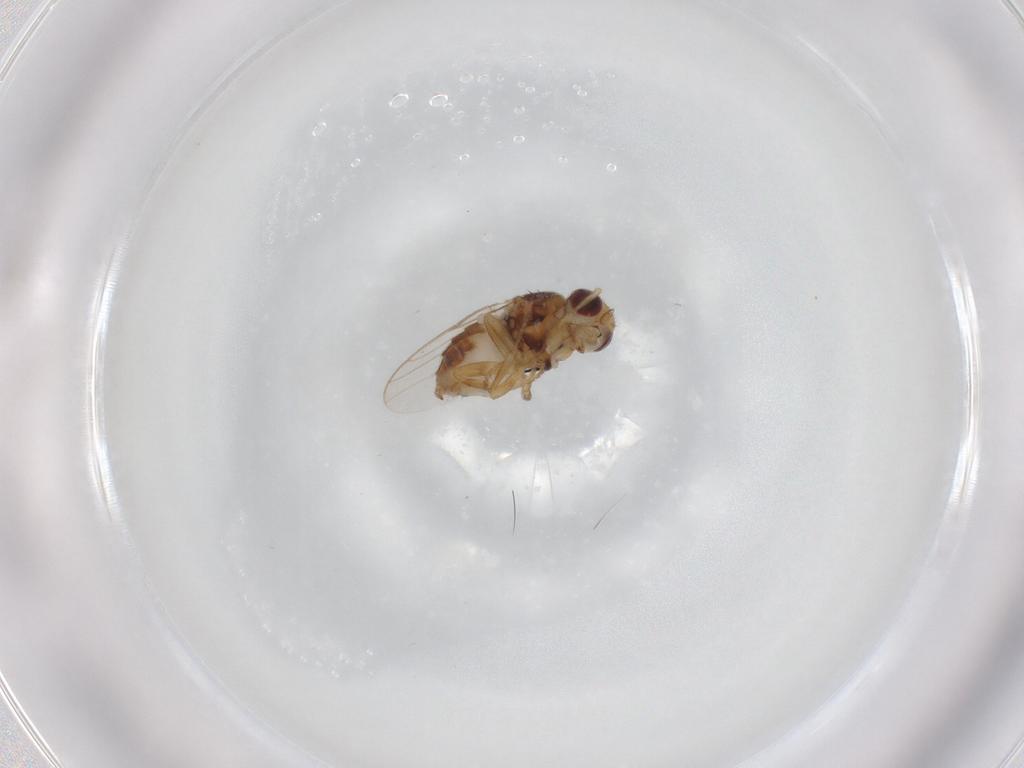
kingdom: Animalia
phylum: Arthropoda
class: Insecta
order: Diptera
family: Chloropidae
